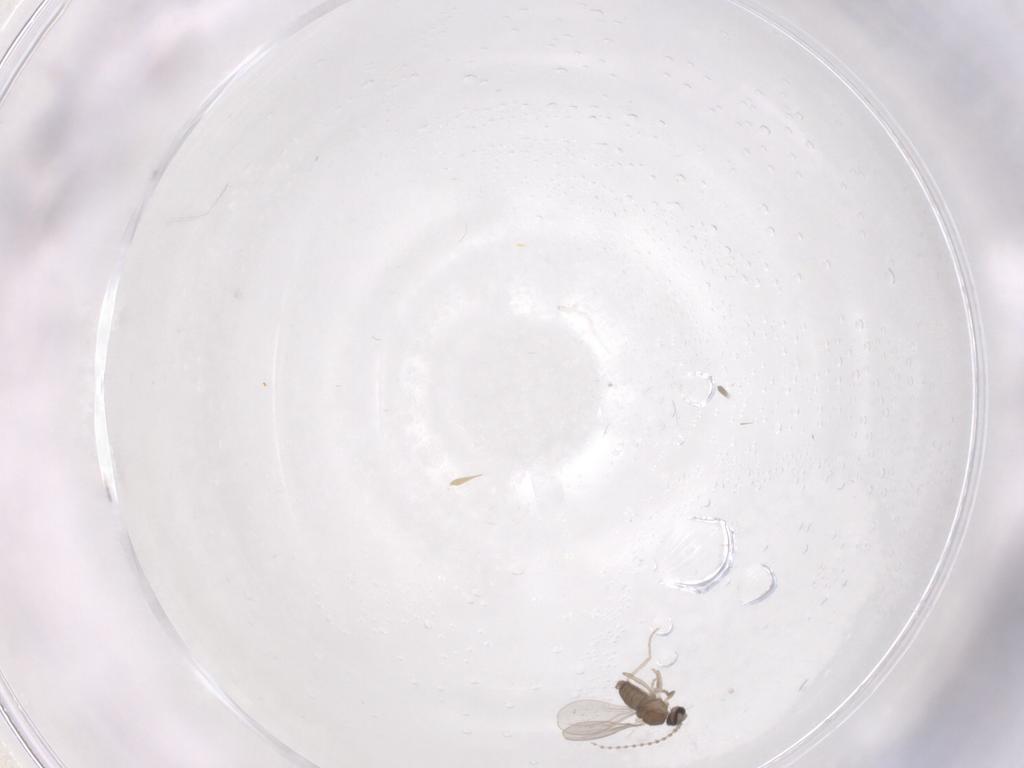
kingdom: Animalia
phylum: Arthropoda
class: Insecta
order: Diptera
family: Cecidomyiidae
